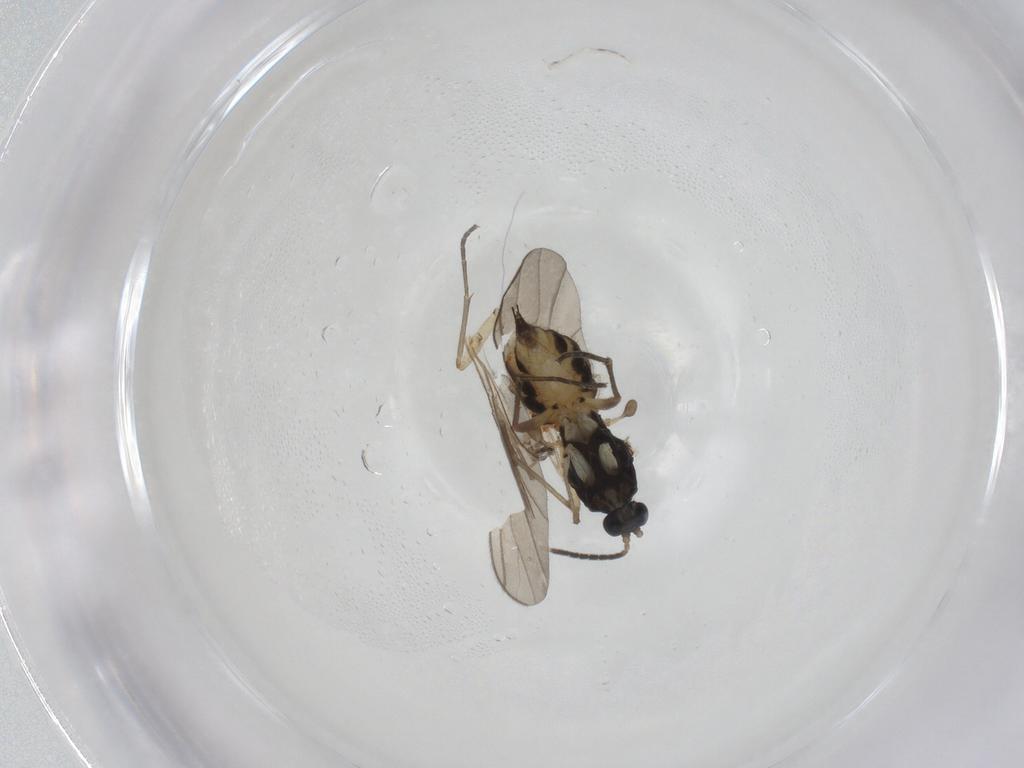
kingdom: Animalia
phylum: Arthropoda
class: Insecta
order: Diptera
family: Sciaridae
